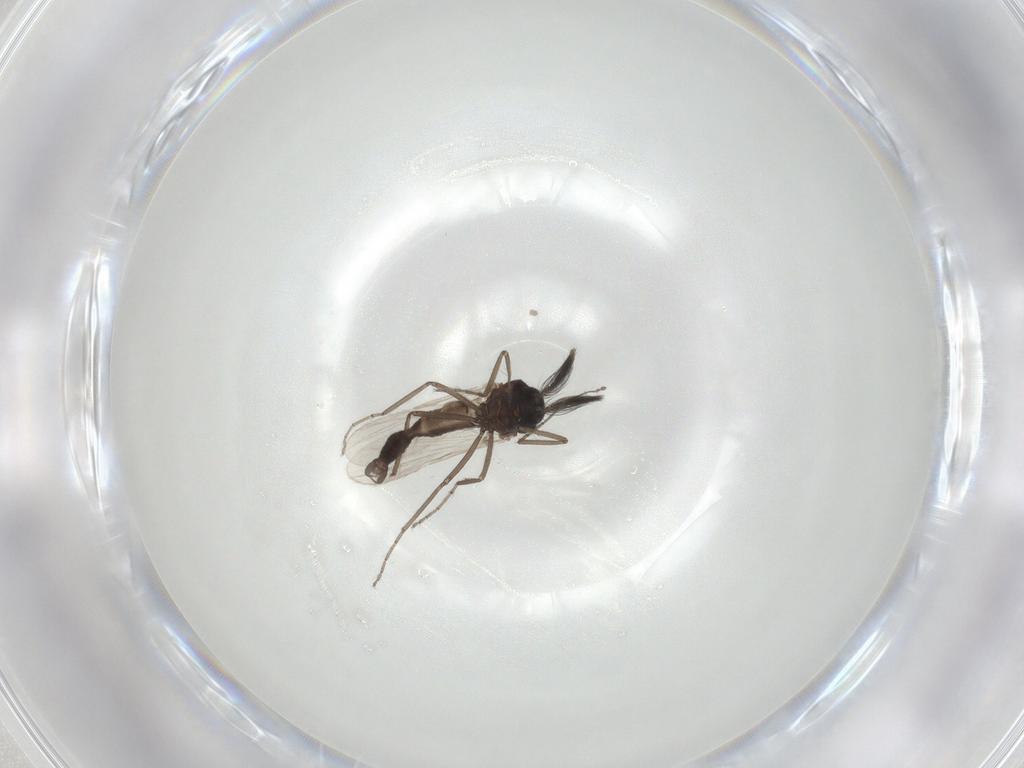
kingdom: Animalia
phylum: Arthropoda
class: Insecta
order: Diptera
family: Ceratopogonidae
